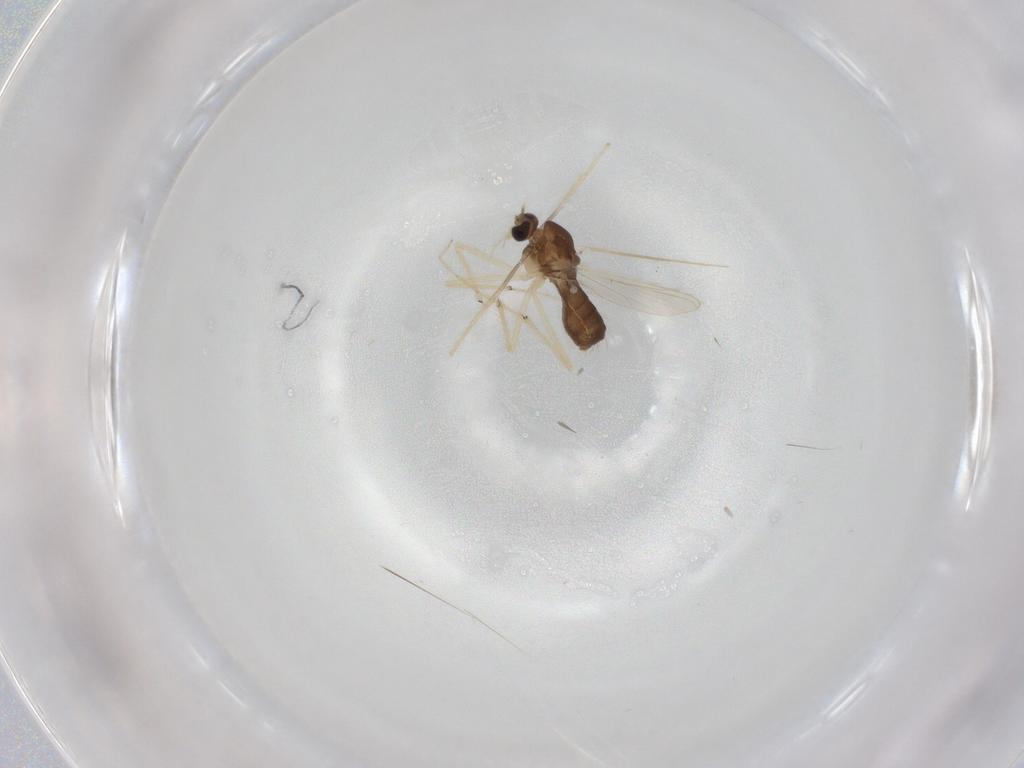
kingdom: Animalia
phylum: Arthropoda
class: Insecta
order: Diptera
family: Chironomidae
